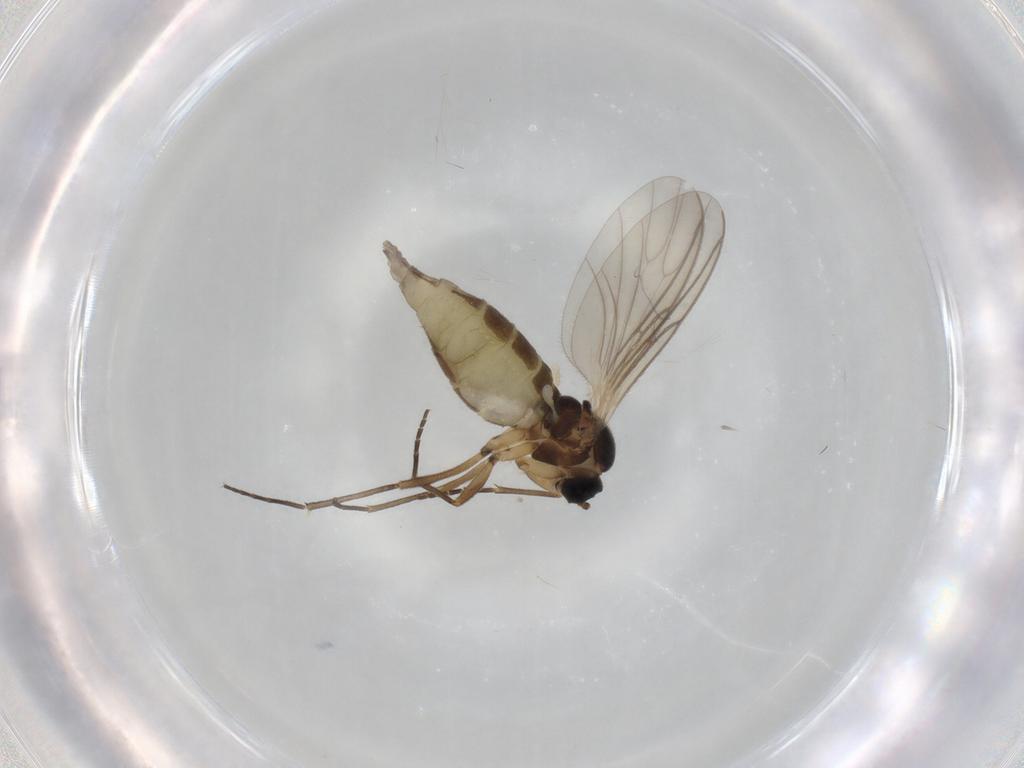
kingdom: Animalia
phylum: Arthropoda
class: Insecta
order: Diptera
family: Sciaridae
